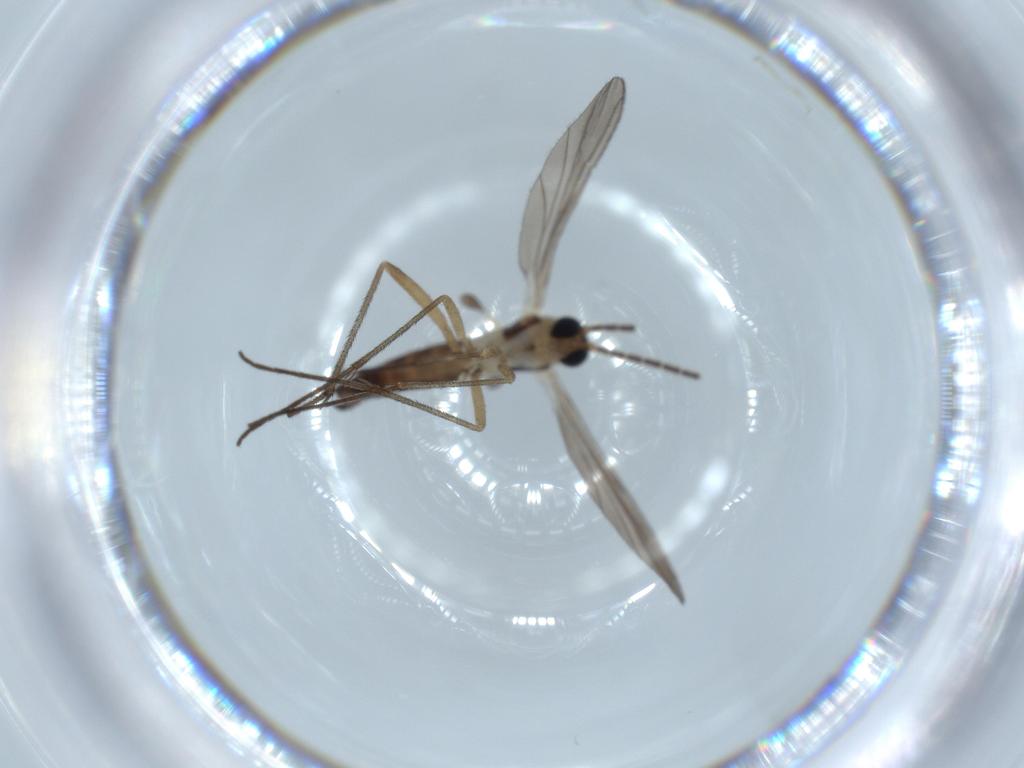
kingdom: Animalia
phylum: Arthropoda
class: Insecta
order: Diptera
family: Sciaridae
